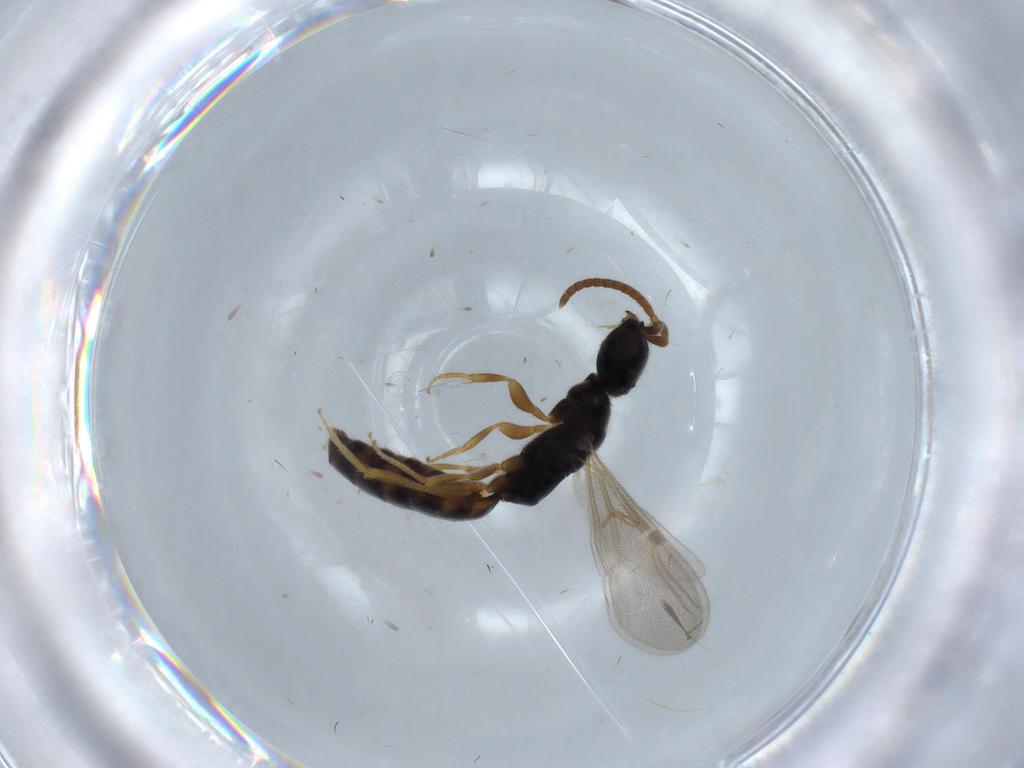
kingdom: Animalia
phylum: Arthropoda
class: Insecta
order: Hymenoptera
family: Bethylidae
